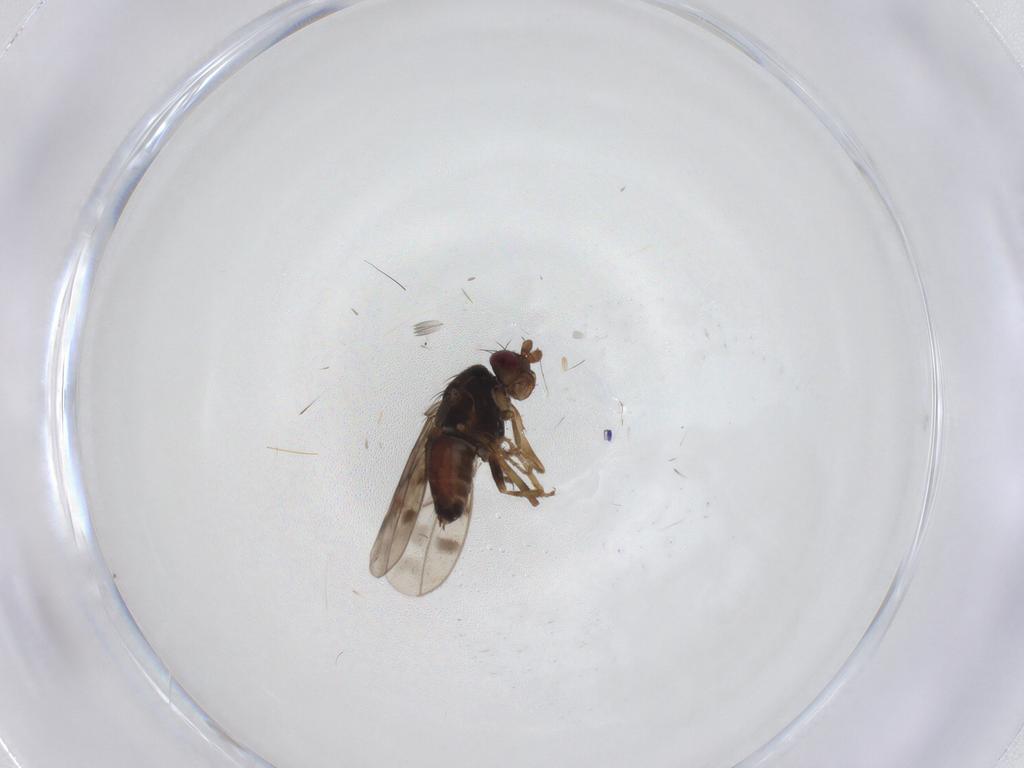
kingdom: Animalia
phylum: Arthropoda
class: Insecta
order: Diptera
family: Sphaeroceridae
